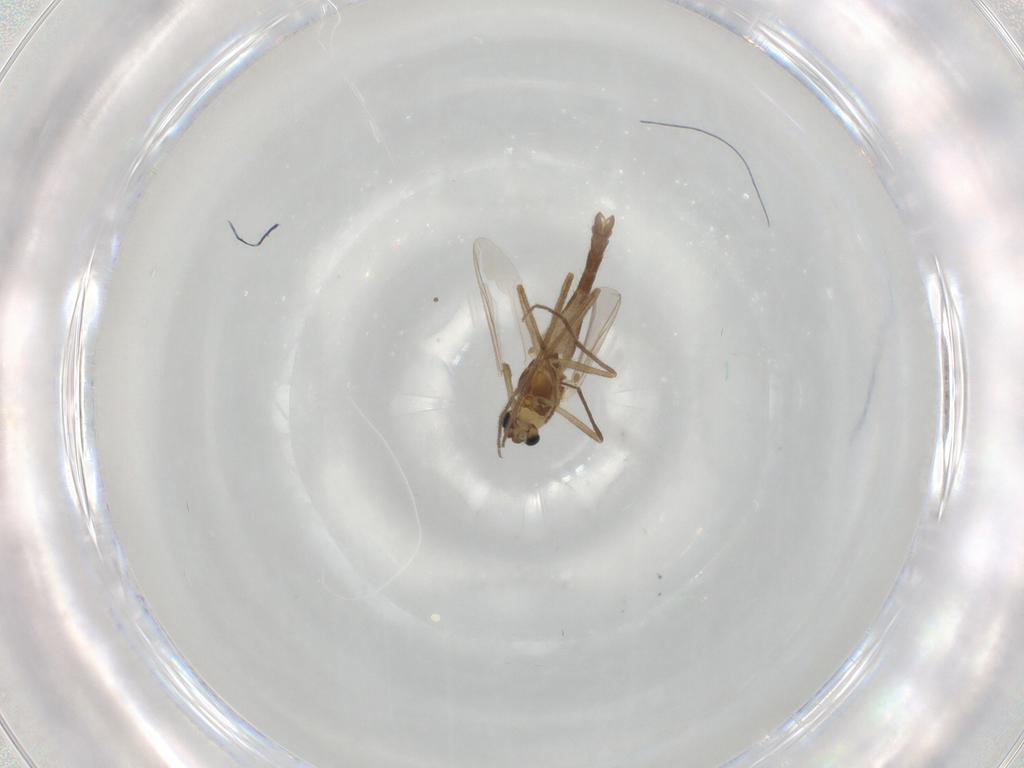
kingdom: Animalia
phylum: Arthropoda
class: Insecta
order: Diptera
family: Chironomidae
